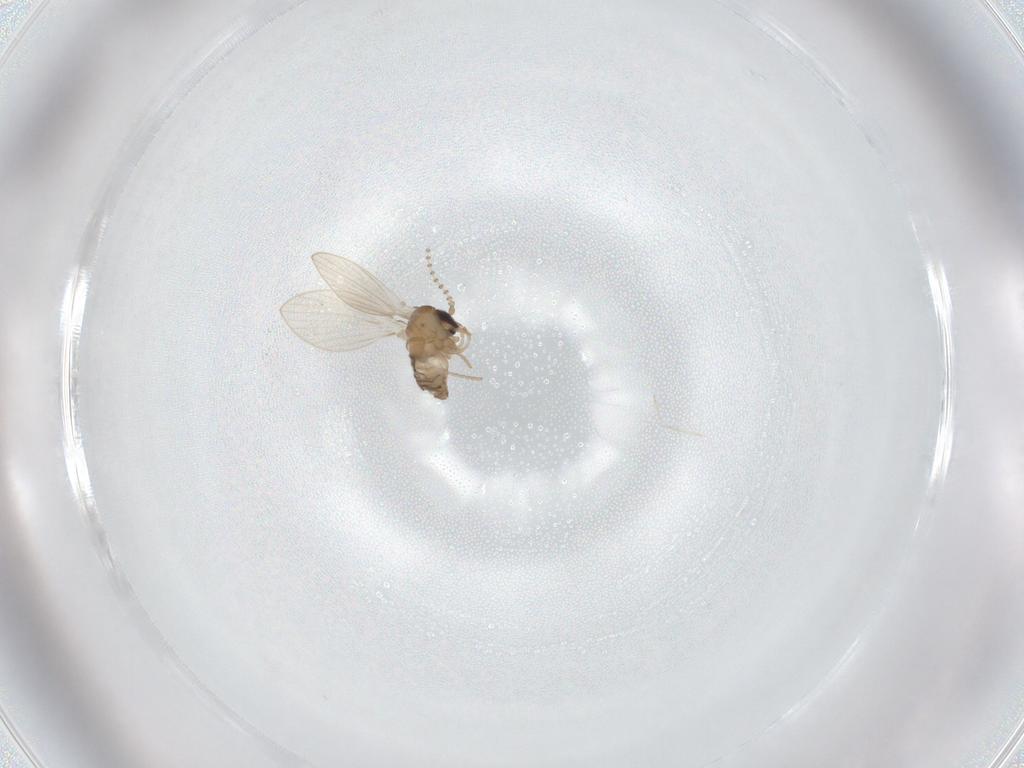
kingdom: Animalia
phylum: Arthropoda
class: Insecta
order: Diptera
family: Psychodidae
